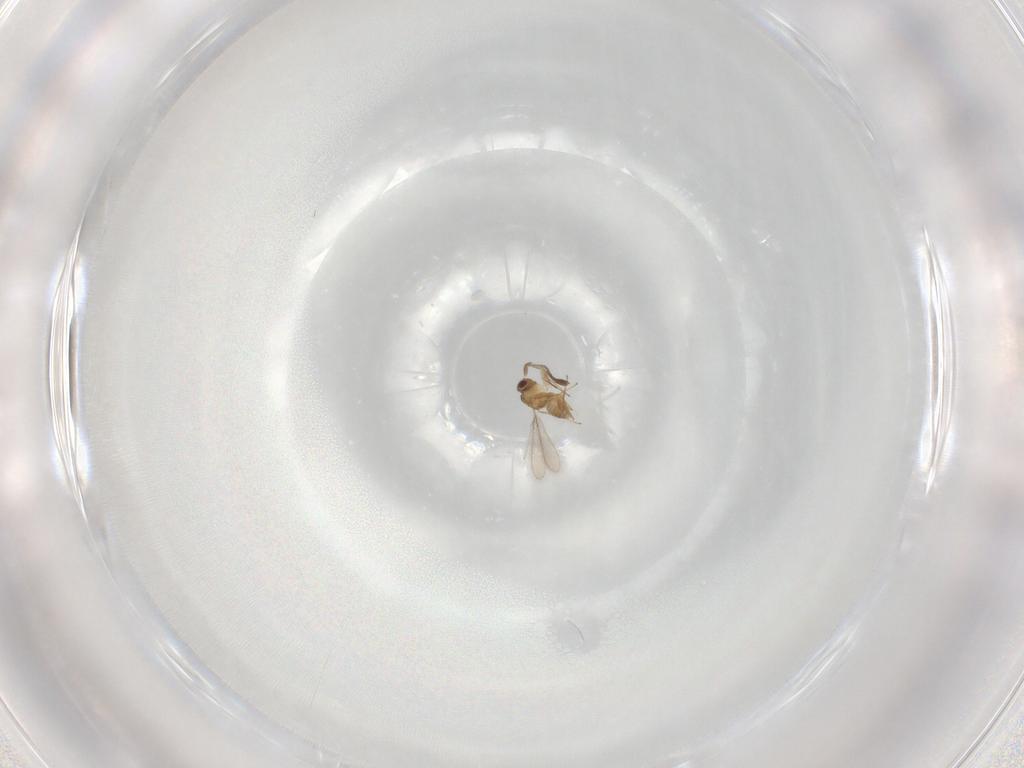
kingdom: Animalia
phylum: Arthropoda
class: Insecta
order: Hymenoptera
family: Mymaridae
